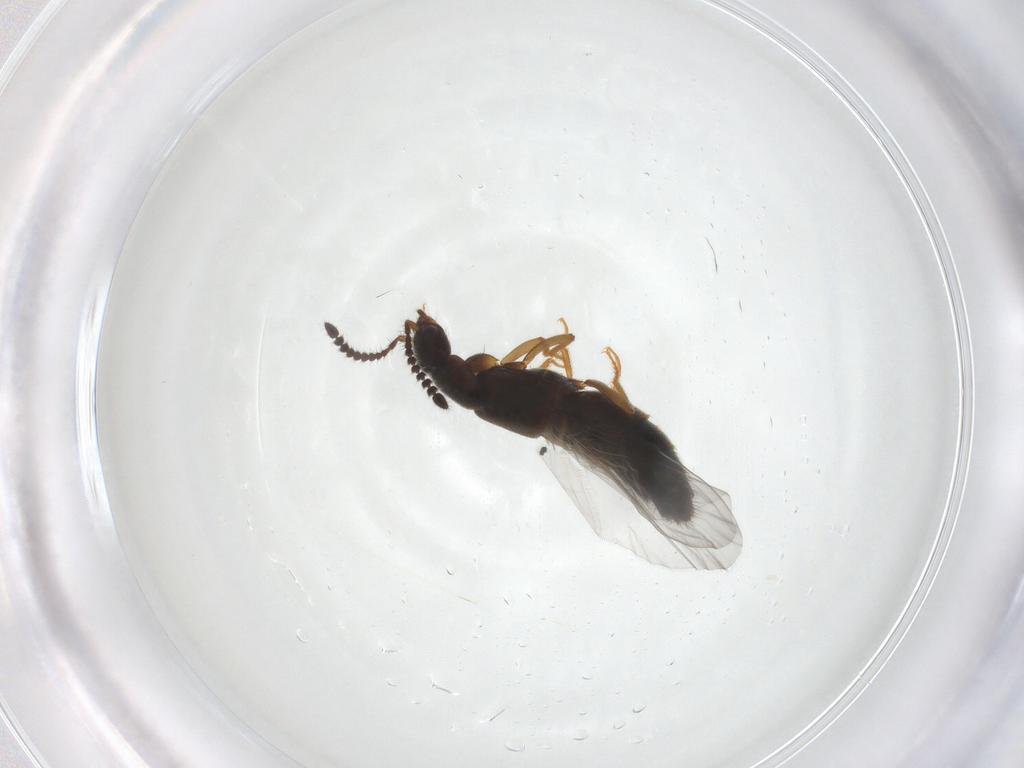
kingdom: Animalia
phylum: Arthropoda
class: Insecta
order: Coleoptera
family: Staphylinidae
